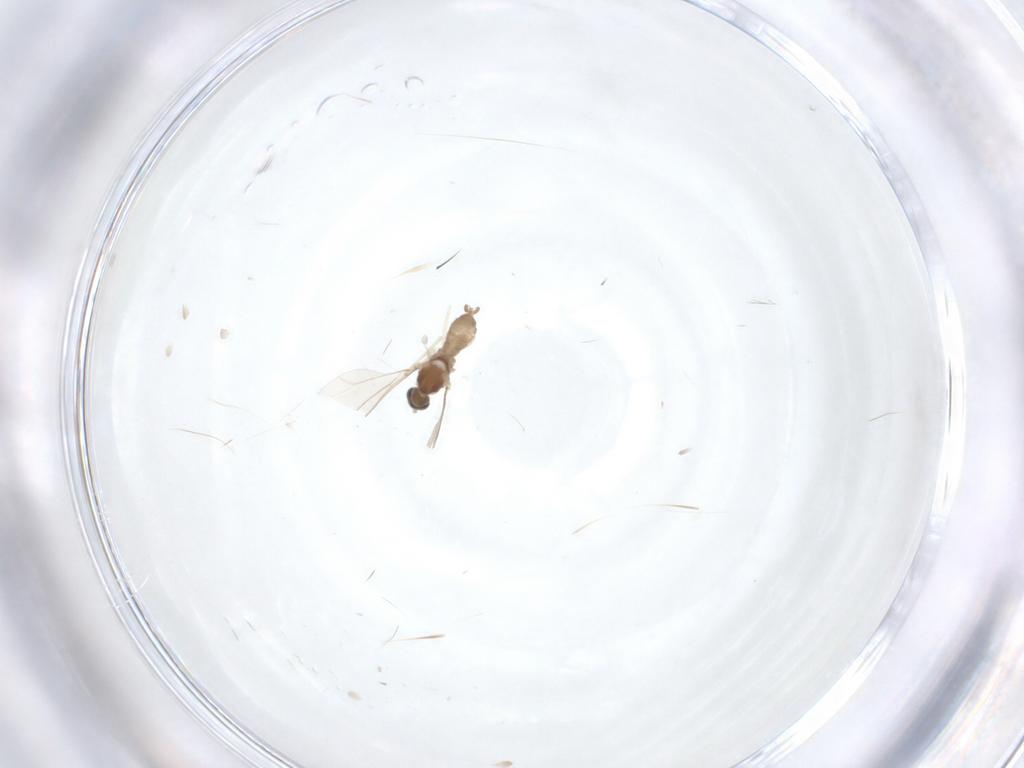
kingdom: Animalia
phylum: Arthropoda
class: Insecta
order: Diptera
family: Cecidomyiidae
